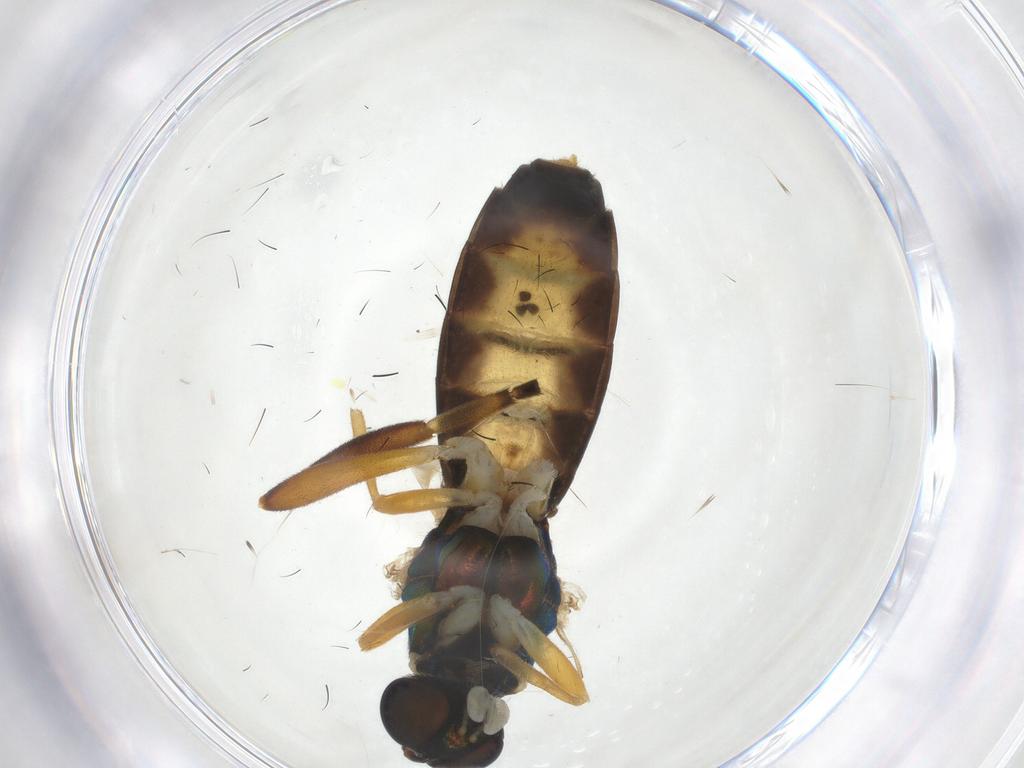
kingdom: Animalia
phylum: Arthropoda
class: Insecta
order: Diptera
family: Stratiomyidae
